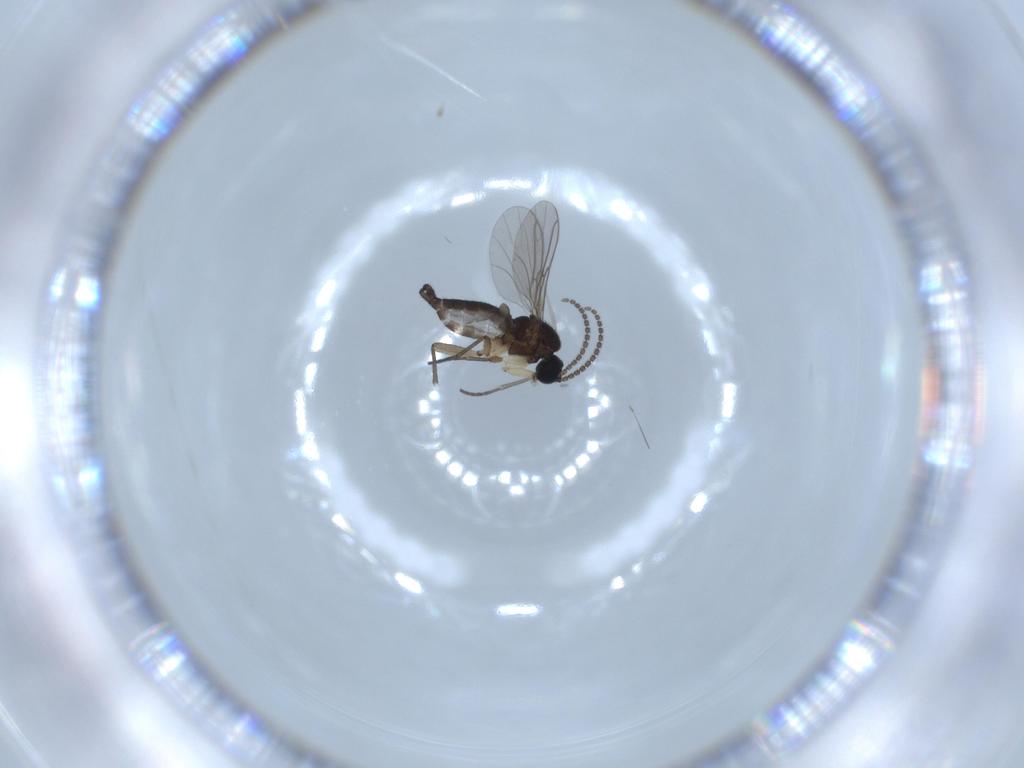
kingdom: Animalia
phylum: Arthropoda
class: Insecta
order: Diptera
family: Sciaridae
